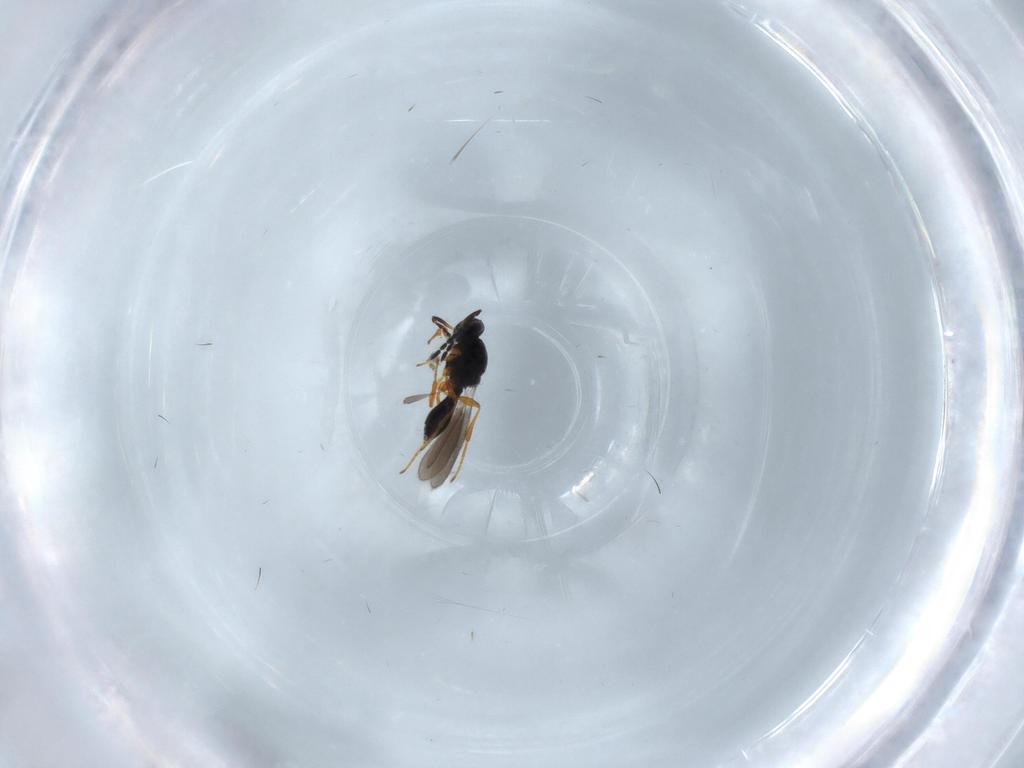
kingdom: Animalia
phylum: Arthropoda
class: Insecta
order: Hymenoptera
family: Platygastridae
